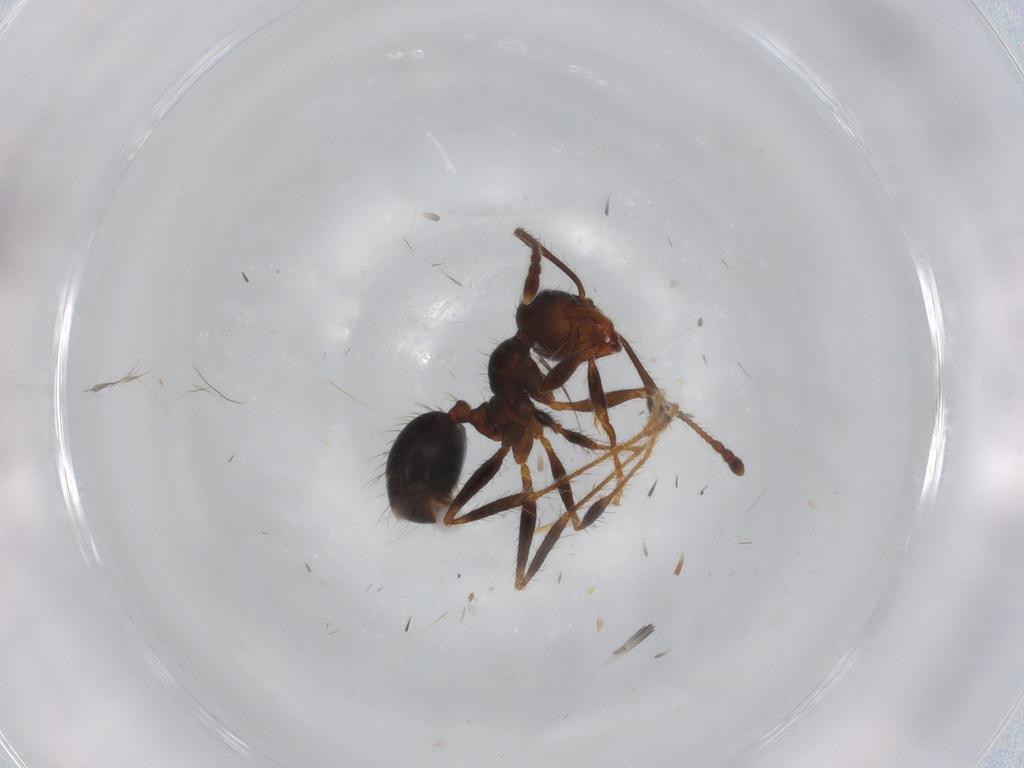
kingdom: Animalia
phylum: Arthropoda
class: Insecta
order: Hymenoptera
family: Formicidae
